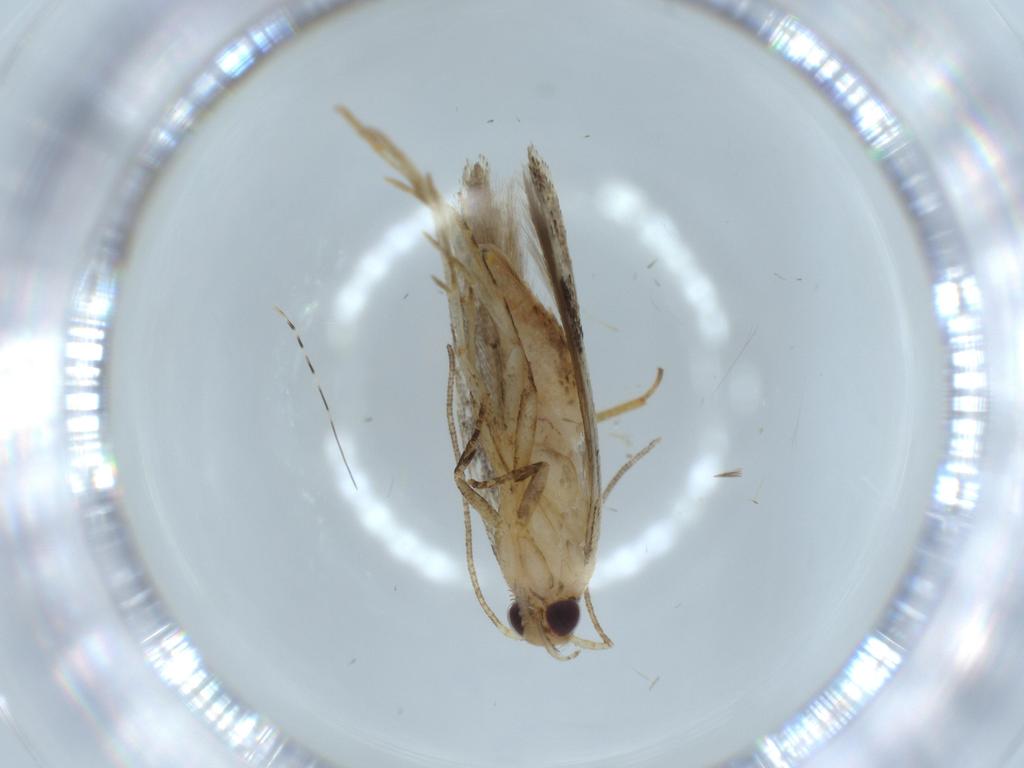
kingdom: Animalia
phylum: Arthropoda
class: Insecta
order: Lepidoptera
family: Coleophoridae
